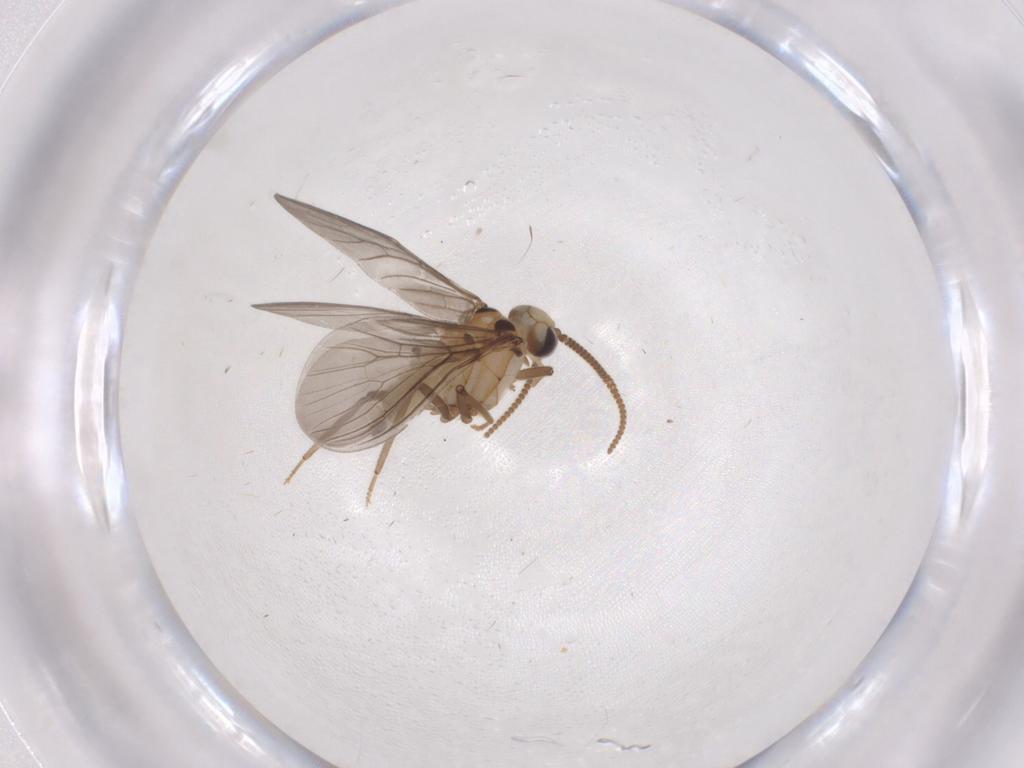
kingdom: Animalia
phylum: Arthropoda
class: Insecta
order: Neuroptera
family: Coniopterygidae
